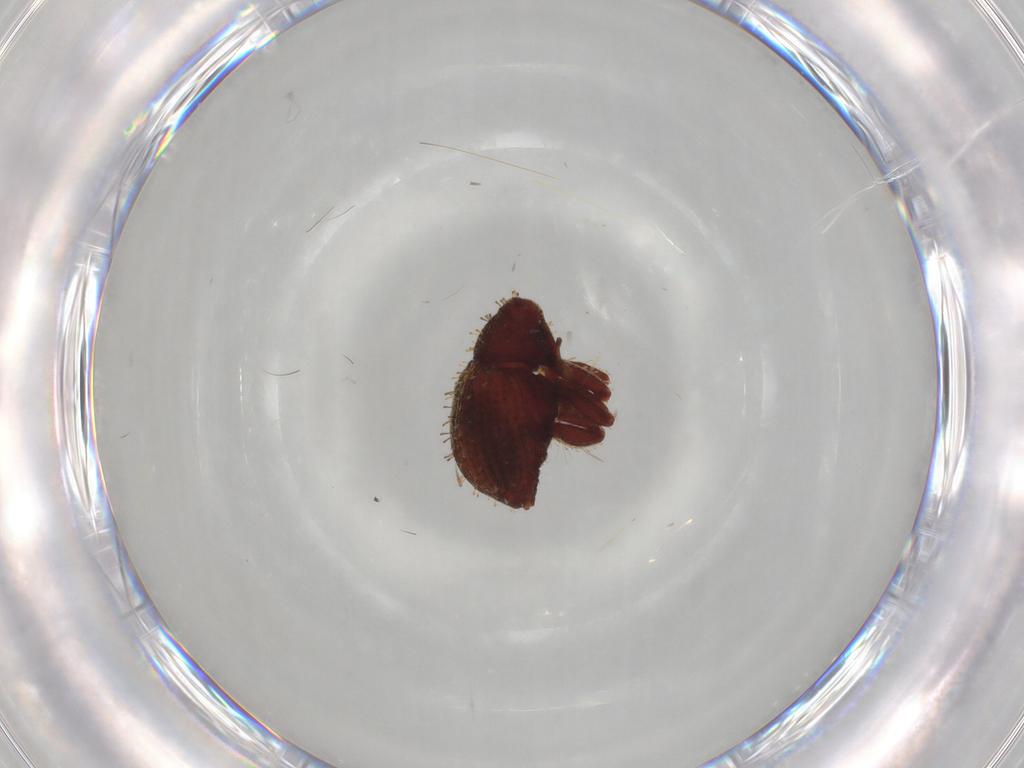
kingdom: Animalia
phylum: Arthropoda
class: Insecta
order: Coleoptera
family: Curculionidae
